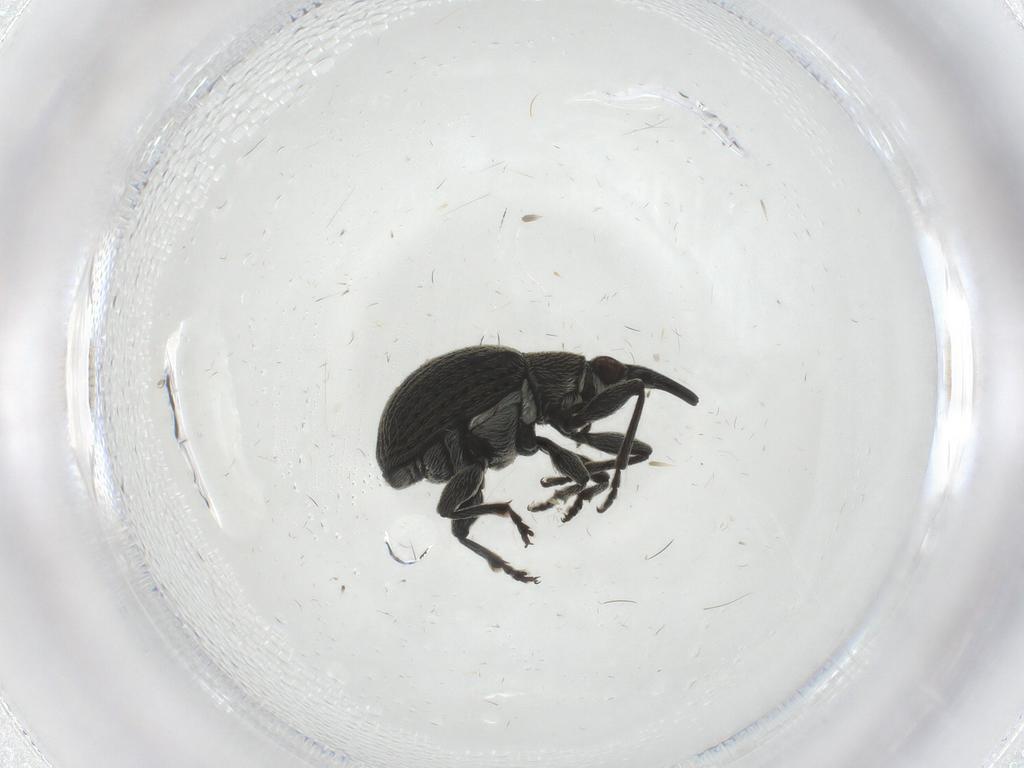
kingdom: Animalia
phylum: Arthropoda
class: Insecta
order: Coleoptera
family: Brentidae
